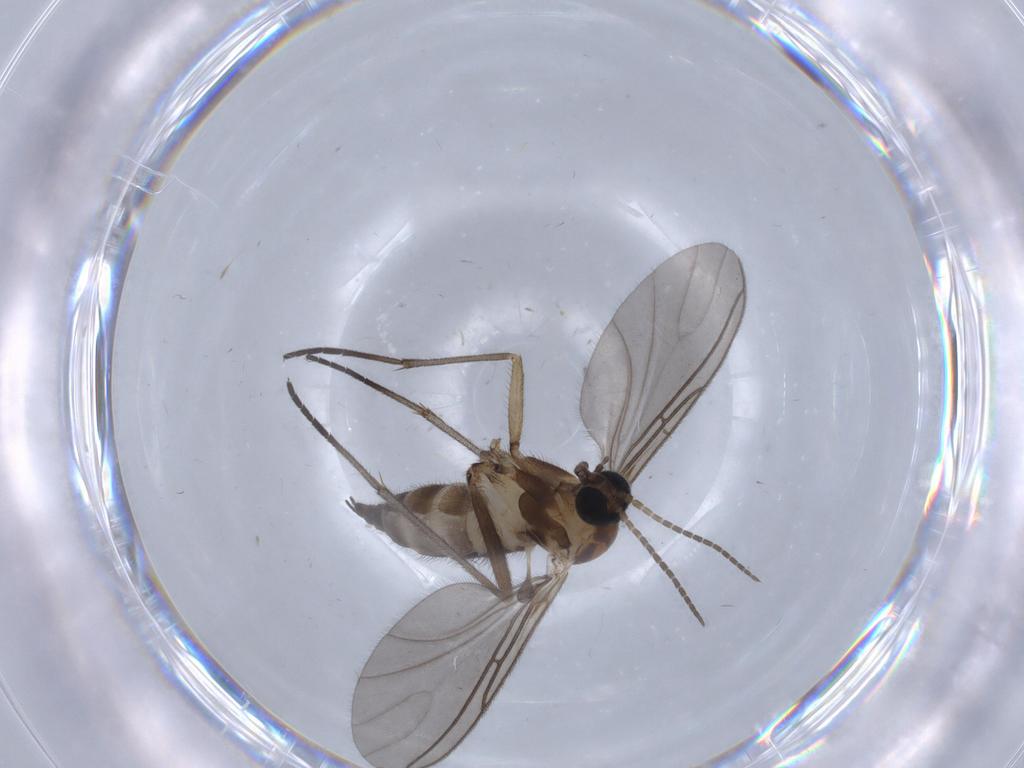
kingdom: Animalia
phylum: Arthropoda
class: Insecta
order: Diptera
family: Sciaridae
